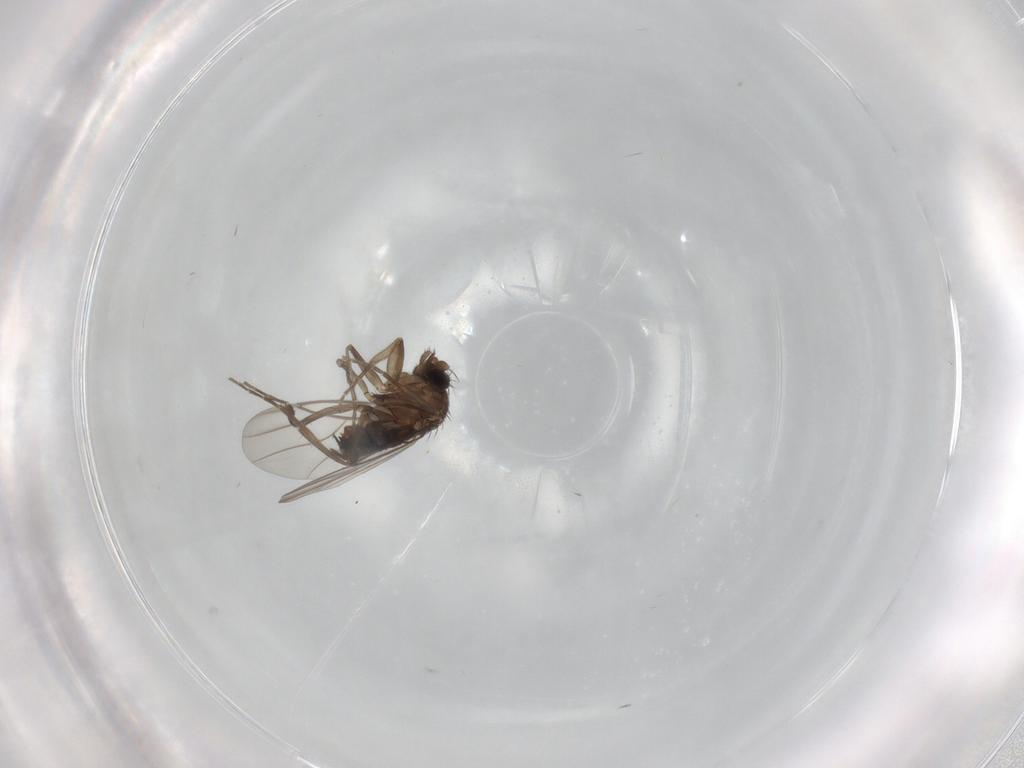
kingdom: Animalia
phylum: Arthropoda
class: Insecta
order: Diptera
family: Drosophilidae
